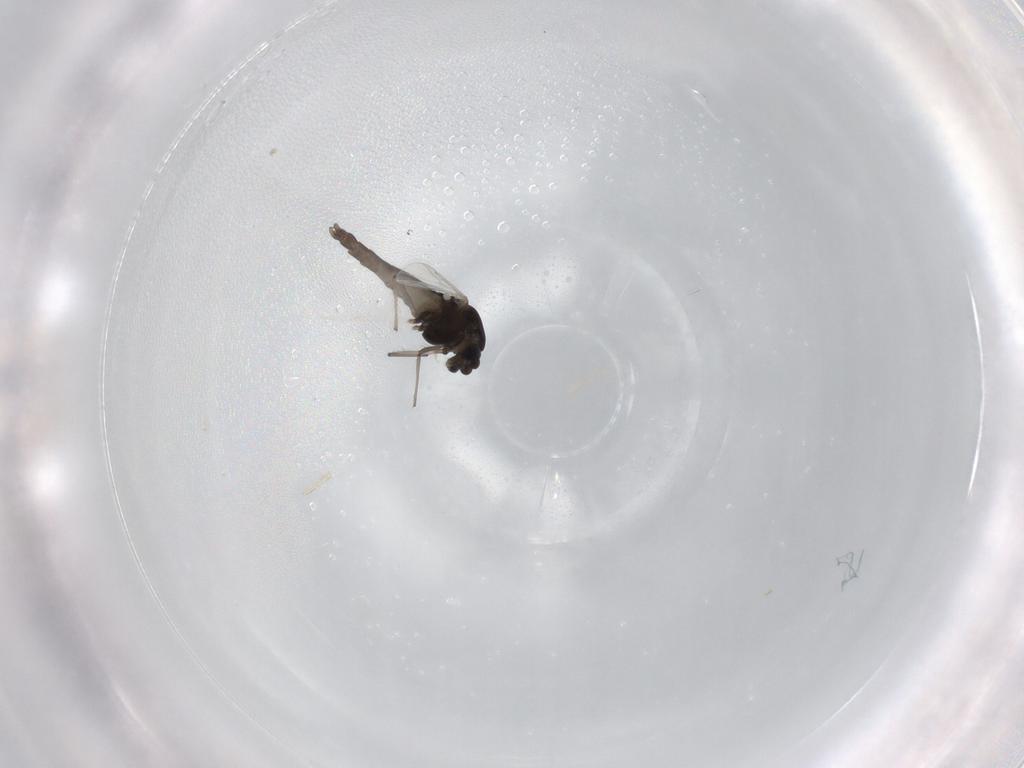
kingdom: Animalia
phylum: Arthropoda
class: Insecta
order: Diptera
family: Chironomidae
